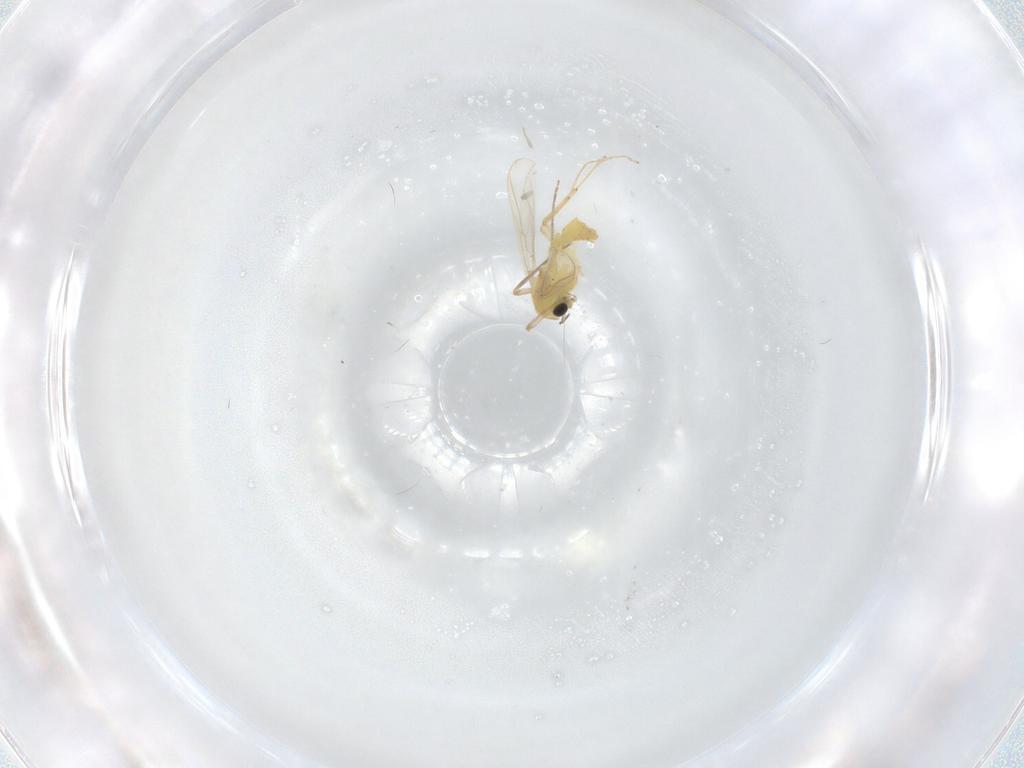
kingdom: Animalia
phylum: Arthropoda
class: Insecta
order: Diptera
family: Chironomidae
